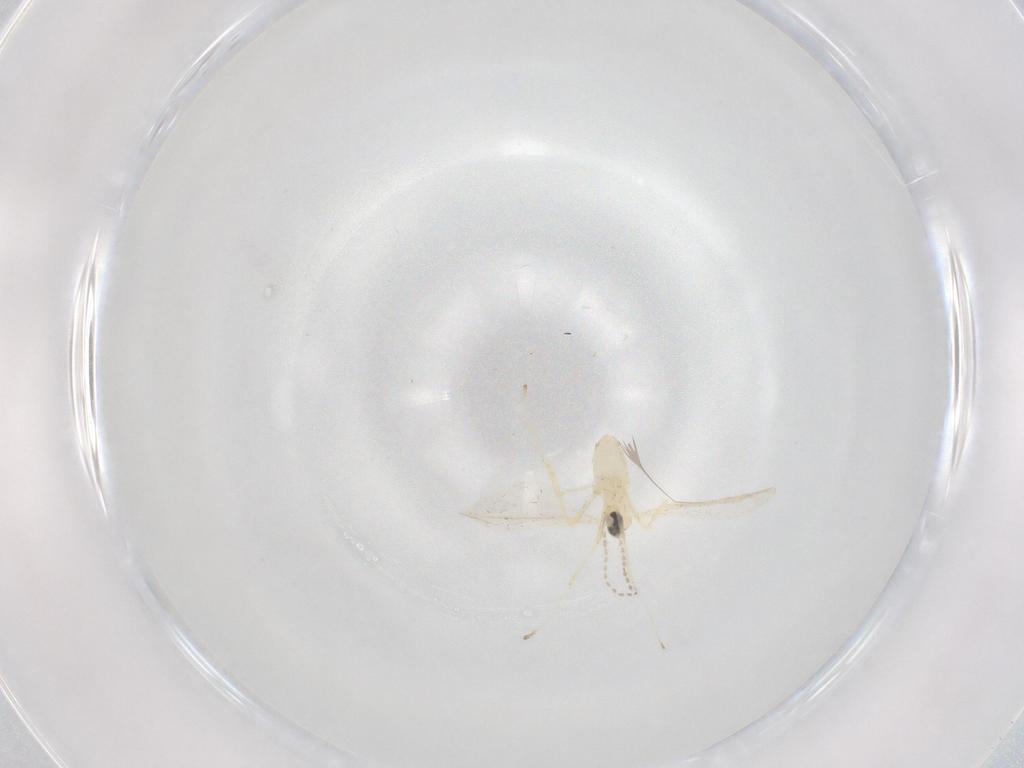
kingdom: Animalia
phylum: Arthropoda
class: Insecta
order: Diptera
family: Cecidomyiidae
